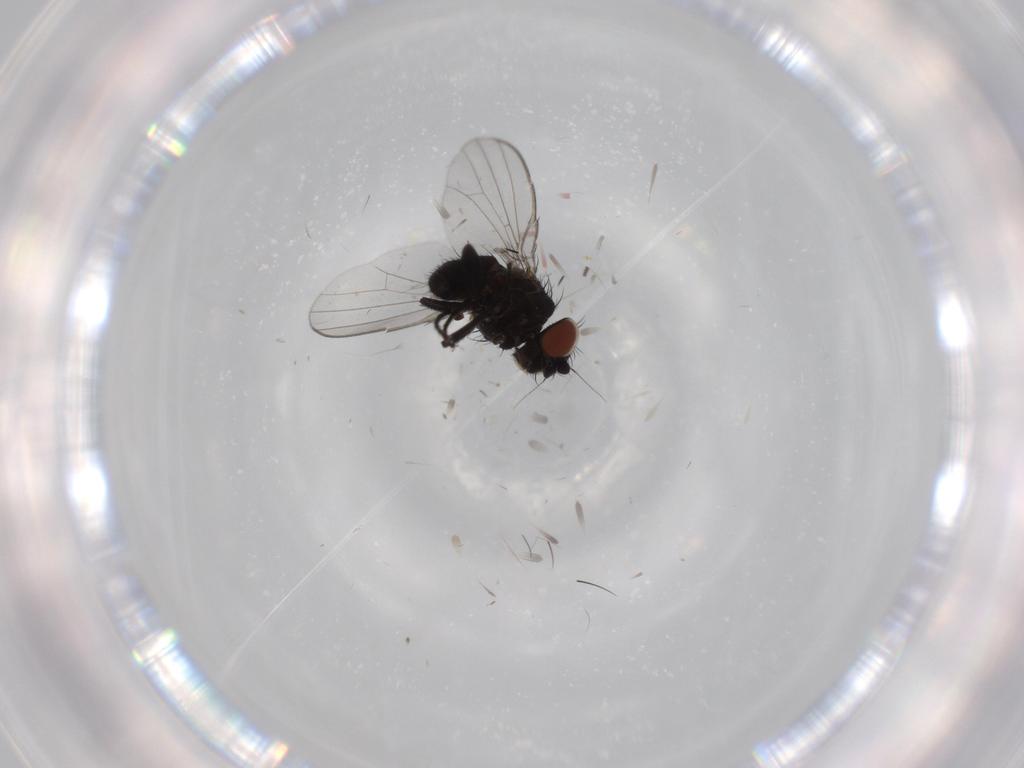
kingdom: Animalia
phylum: Arthropoda
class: Insecta
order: Diptera
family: Milichiidae
